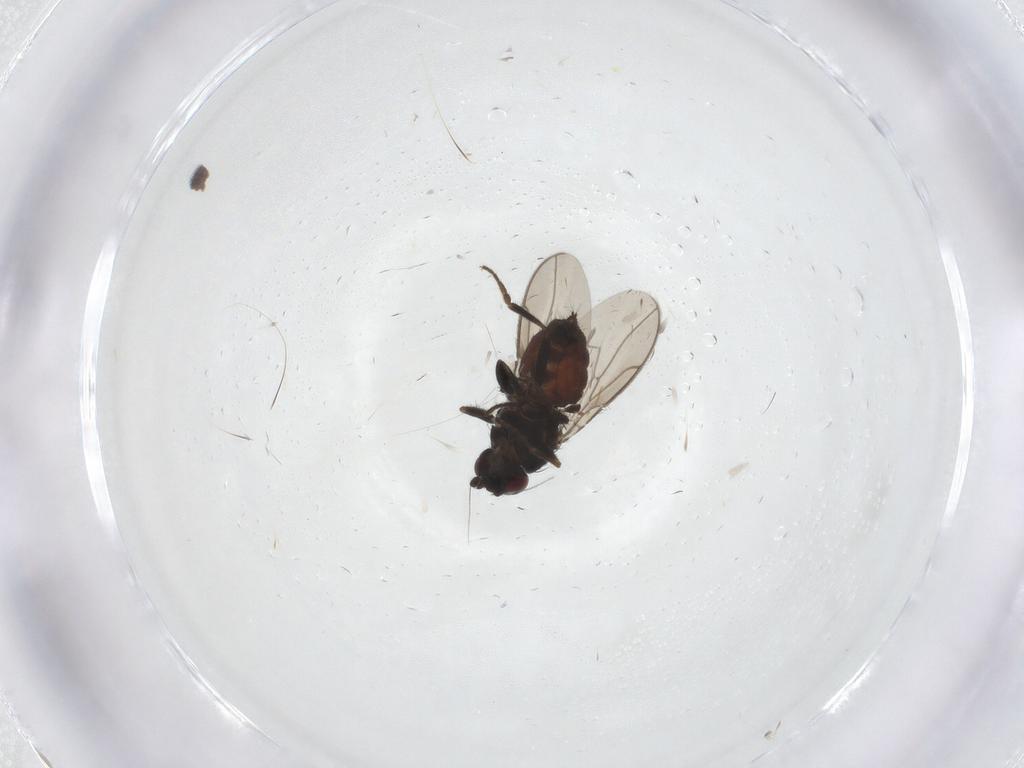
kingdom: Animalia
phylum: Arthropoda
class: Insecta
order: Diptera
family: Sphaeroceridae
